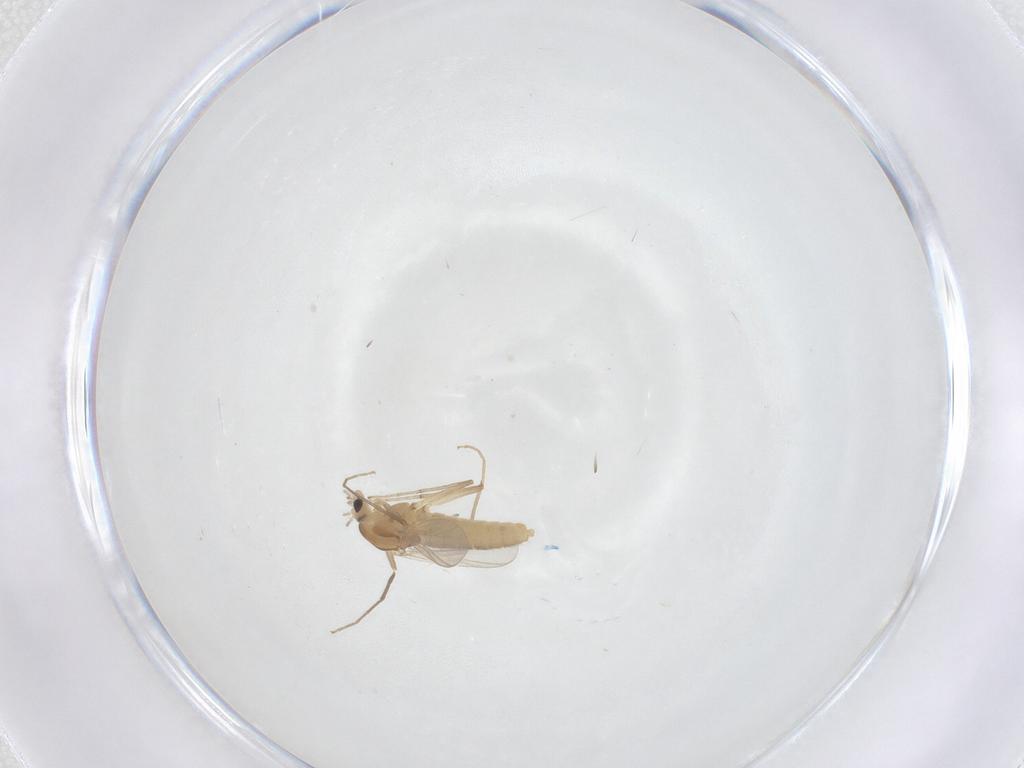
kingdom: Animalia
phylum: Arthropoda
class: Insecta
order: Diptera
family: Chironomidae
